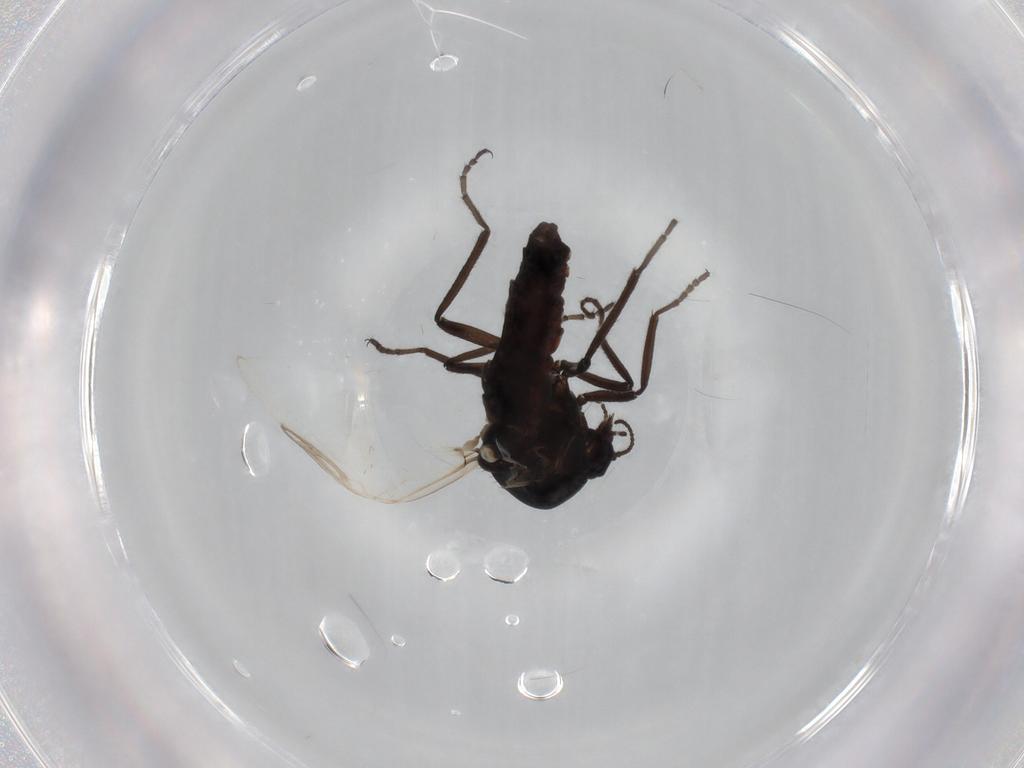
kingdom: Animalia
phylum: Arthropoda
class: Insecta
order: Diptera
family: Ceratopogonidae
